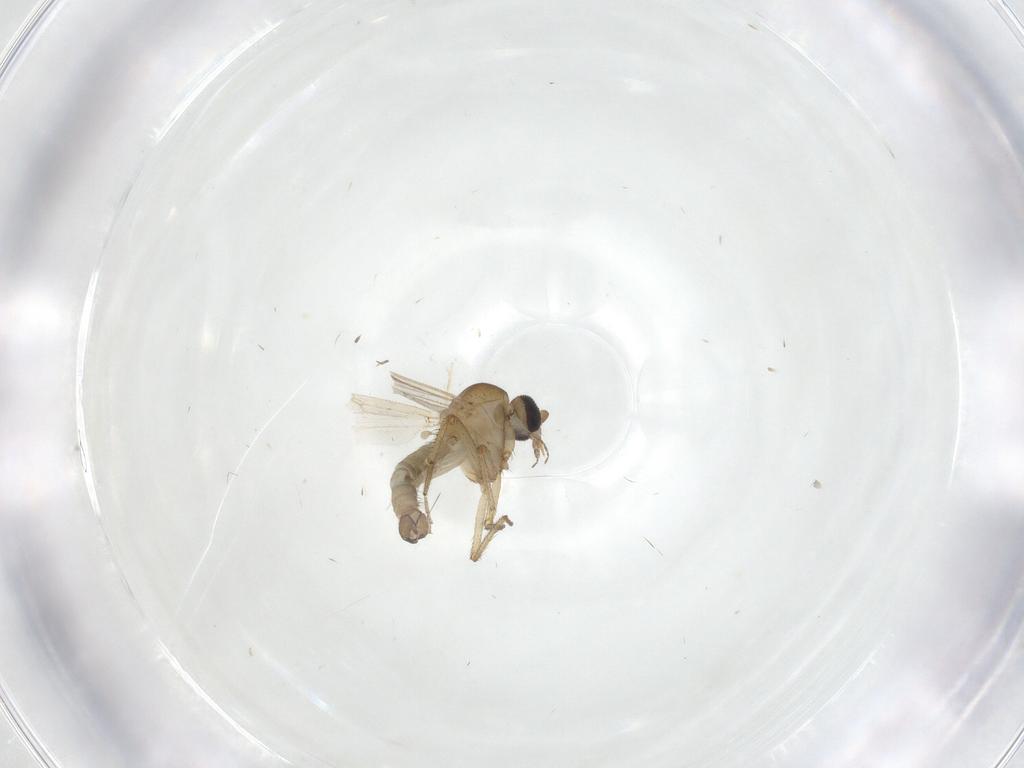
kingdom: Animalia
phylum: Arthropoda
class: Insecta
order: Diptera
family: Ceratopogonidae
